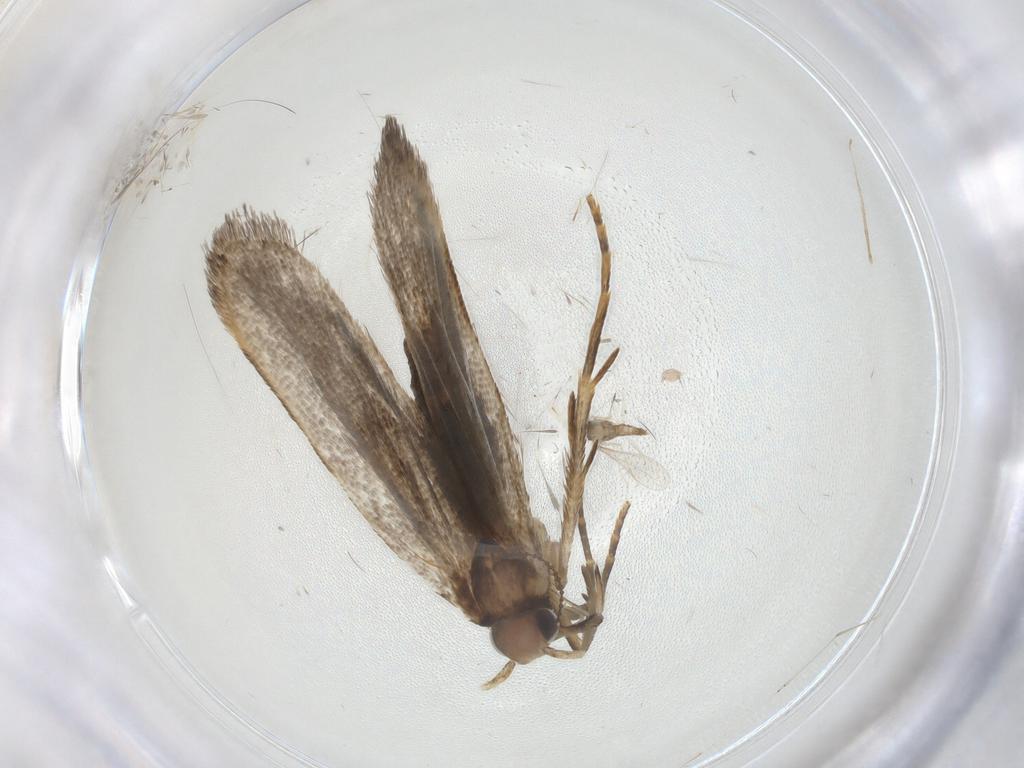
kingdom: Animalia
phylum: Arthropoda
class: Insecta
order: Lepidoptera
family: Gelechiidae
